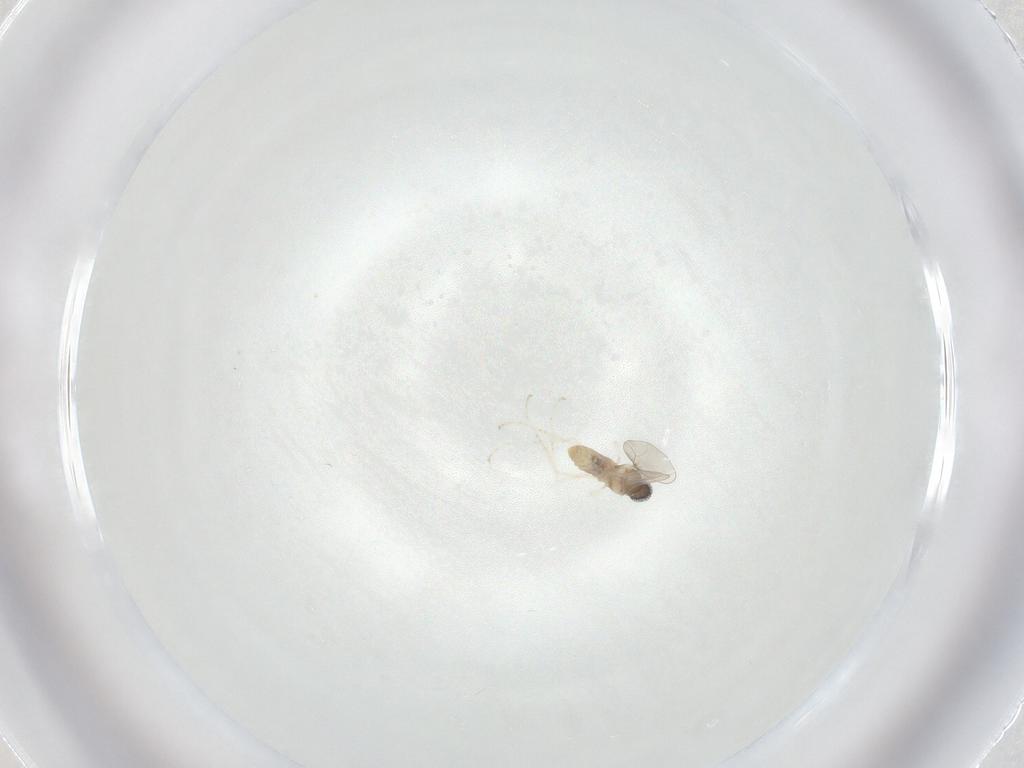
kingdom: Animalia
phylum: Arthropoda
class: Insecta
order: Diptera
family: Cecidomyiidae
